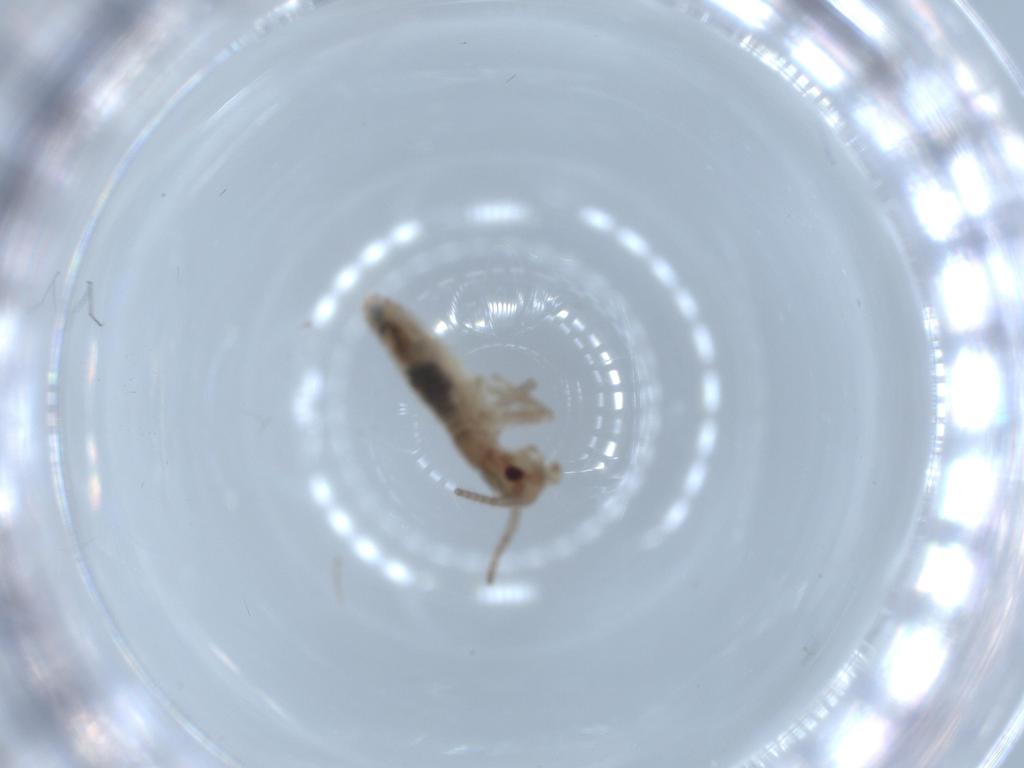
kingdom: Animalia
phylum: Arthropoda
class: Insecta
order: Orthoptera
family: Mogoplistidae
